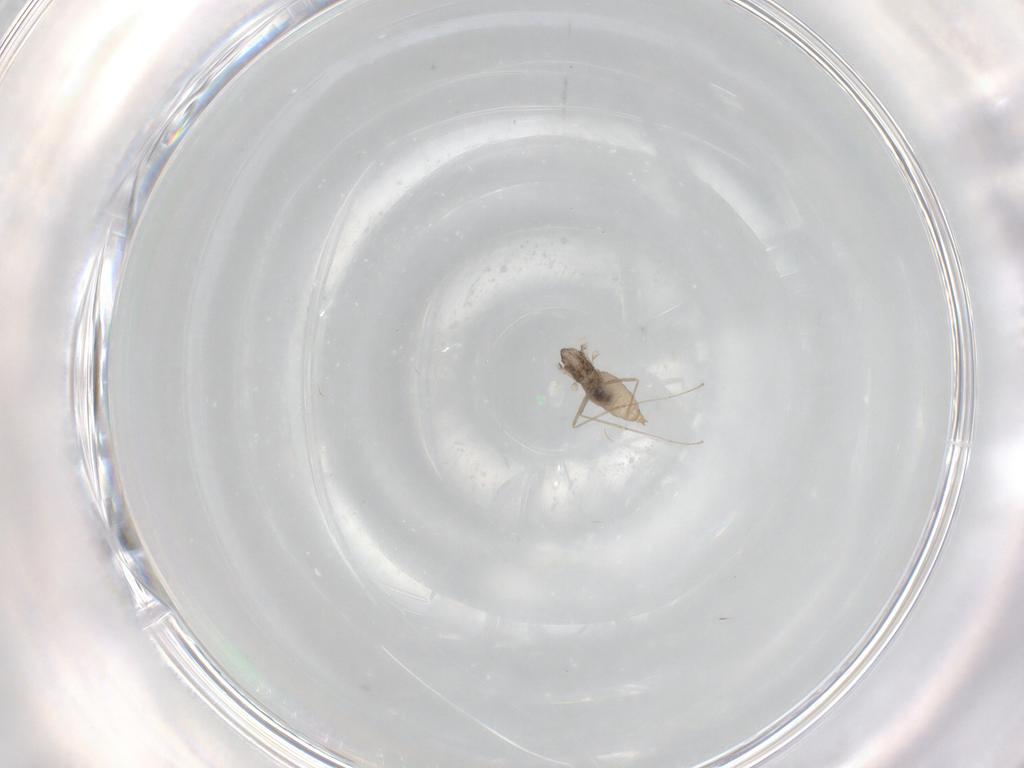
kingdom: Animalia
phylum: Arthropoda
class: Insecta
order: Diptera
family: Cecidomyiidae
